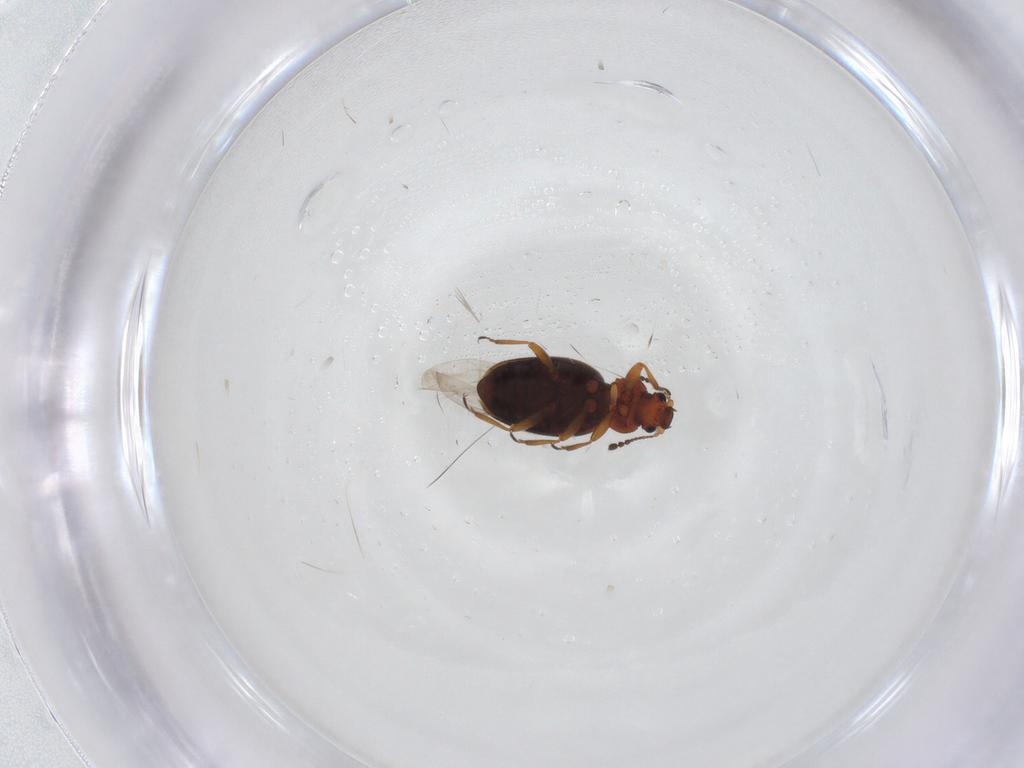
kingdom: Animalia
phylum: Arthropoda
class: Insecta
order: Coleoptera
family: Latridiidae
